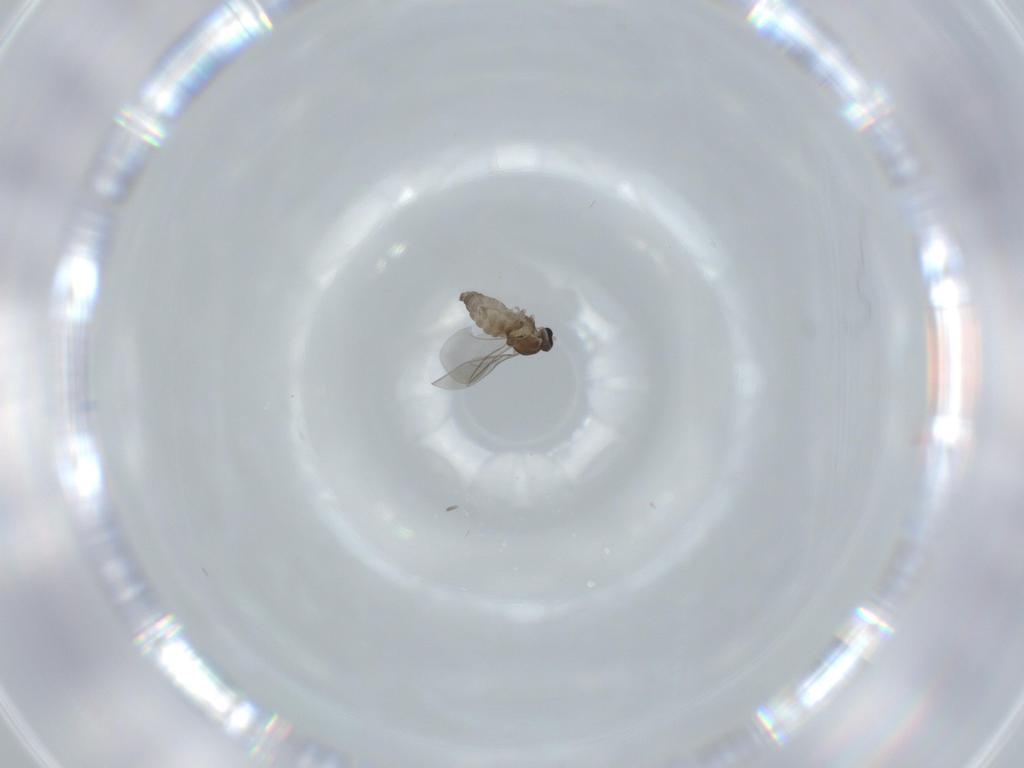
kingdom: Animalia
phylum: Arthropoda
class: Insecta
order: Diptera
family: Cecidomyiidae
